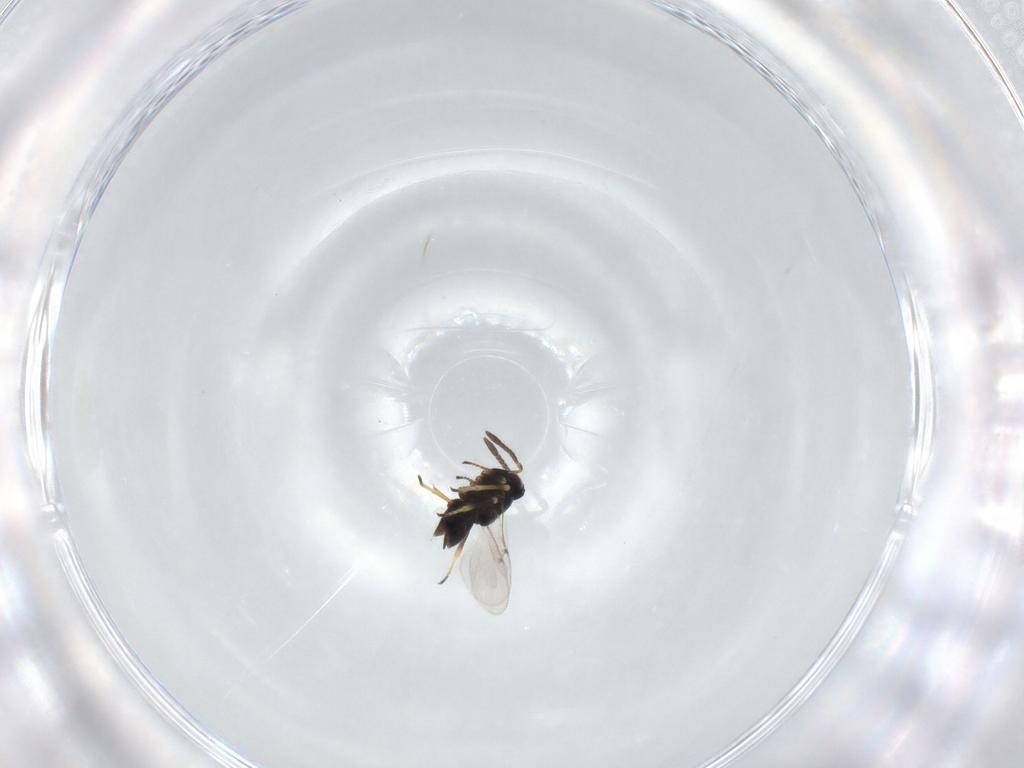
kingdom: Animalia
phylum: Arthropoda
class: Insecta
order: Hymenoptera
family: Encyrtidae
